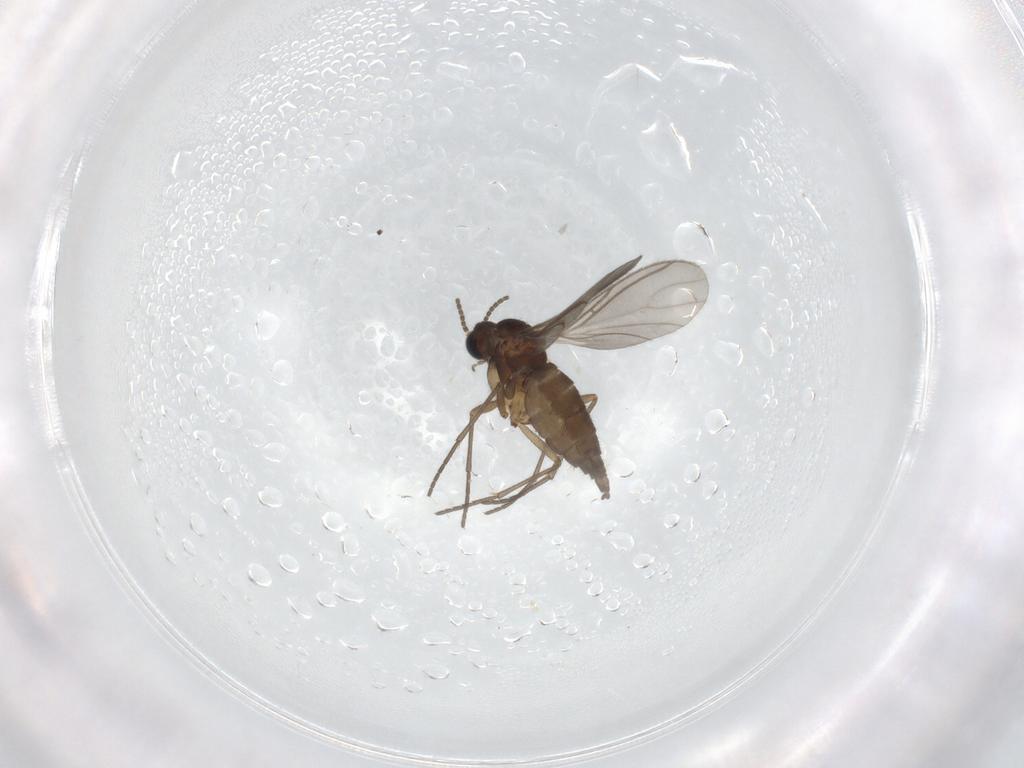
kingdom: Animalia
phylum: Arthropoda
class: Insecta
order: Diptera
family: Sciaridae
